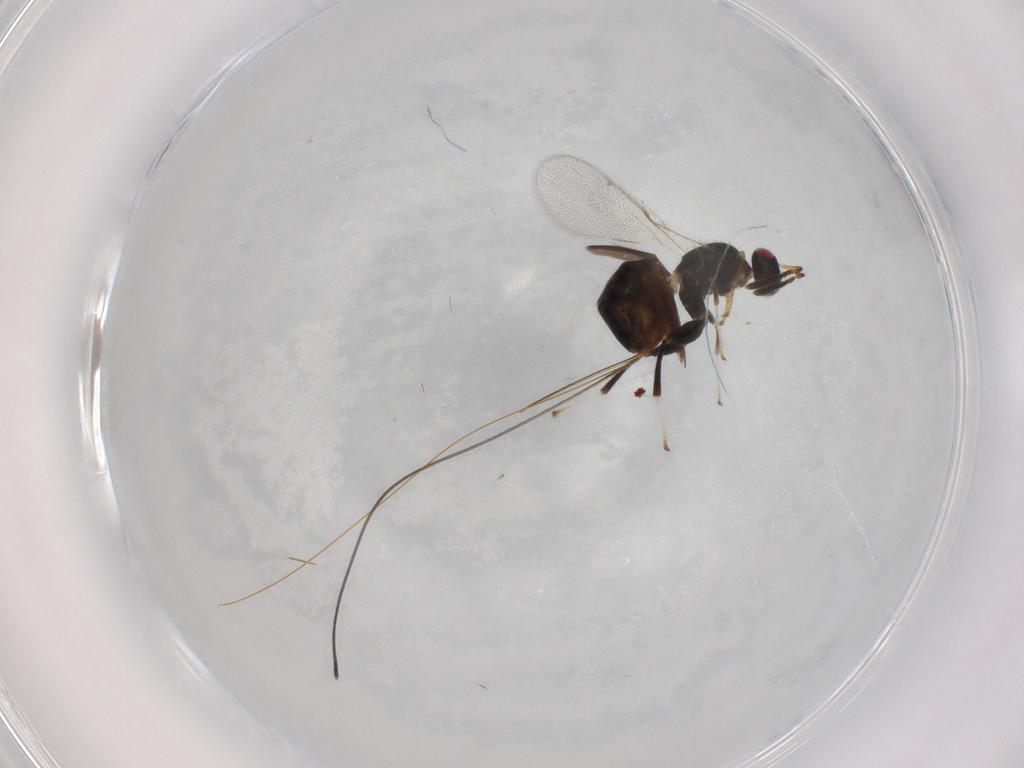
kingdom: Animalia
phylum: Arthropoda
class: Insecta
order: Hymenoptera
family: Torymidae
